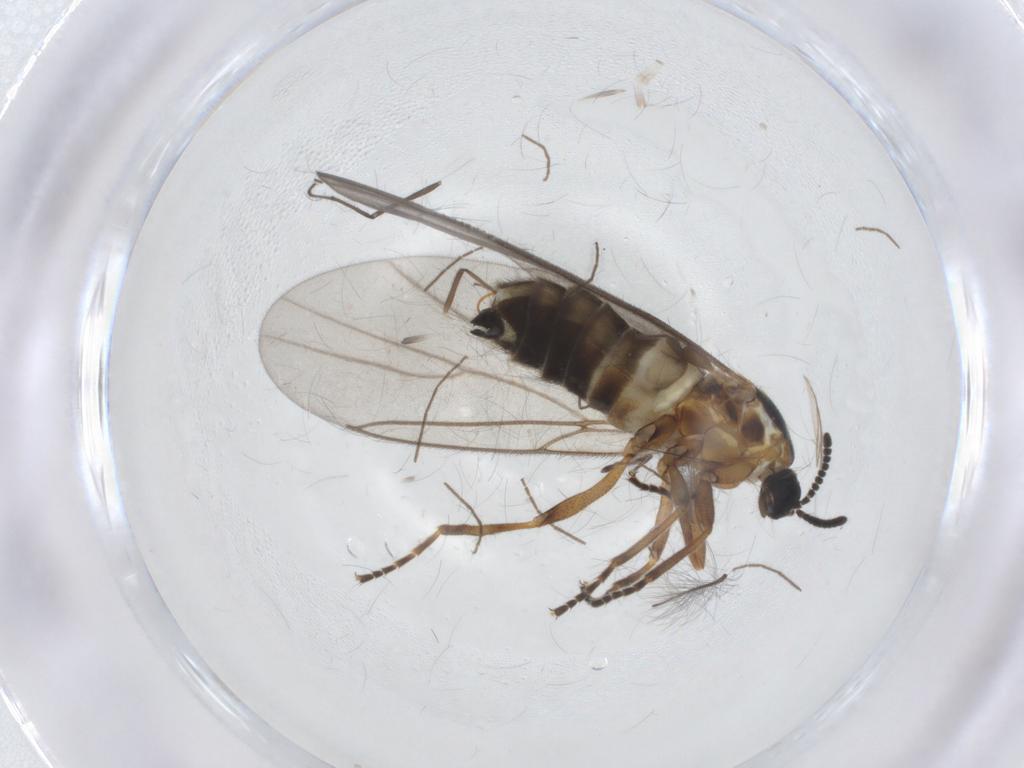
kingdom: Animalia
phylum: Arthropoda
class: Insecta
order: Diptera
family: Scatopsidae
